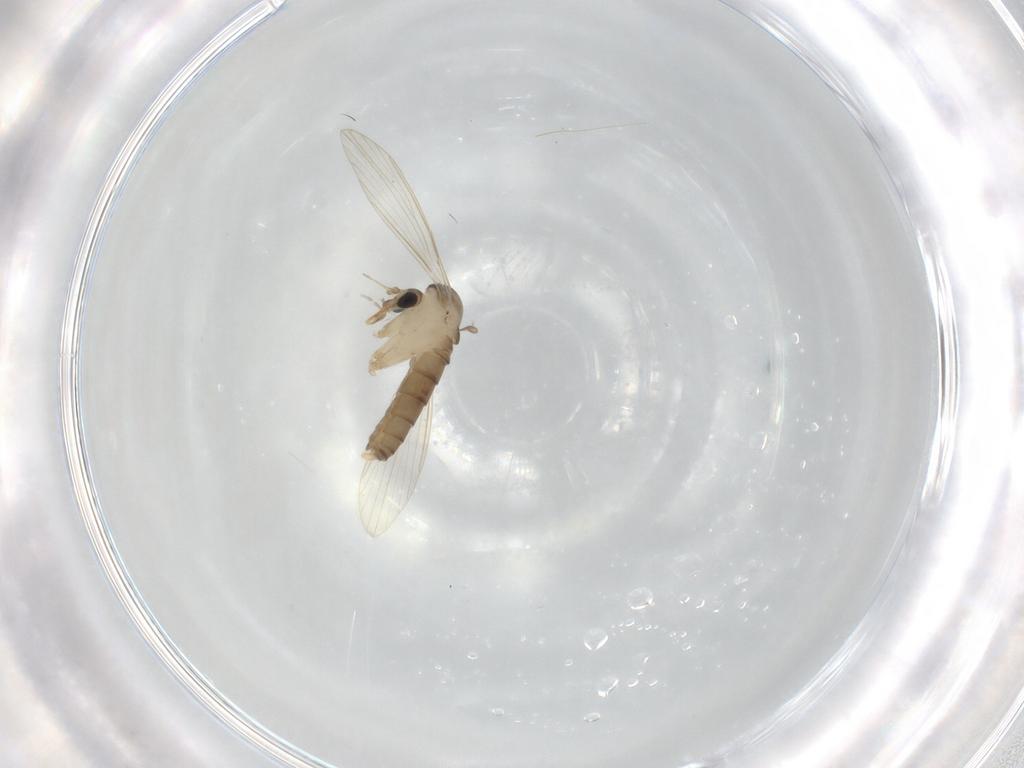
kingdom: Animalia
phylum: Arthropoda
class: Insecta
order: Diptera
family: Psychodidae
